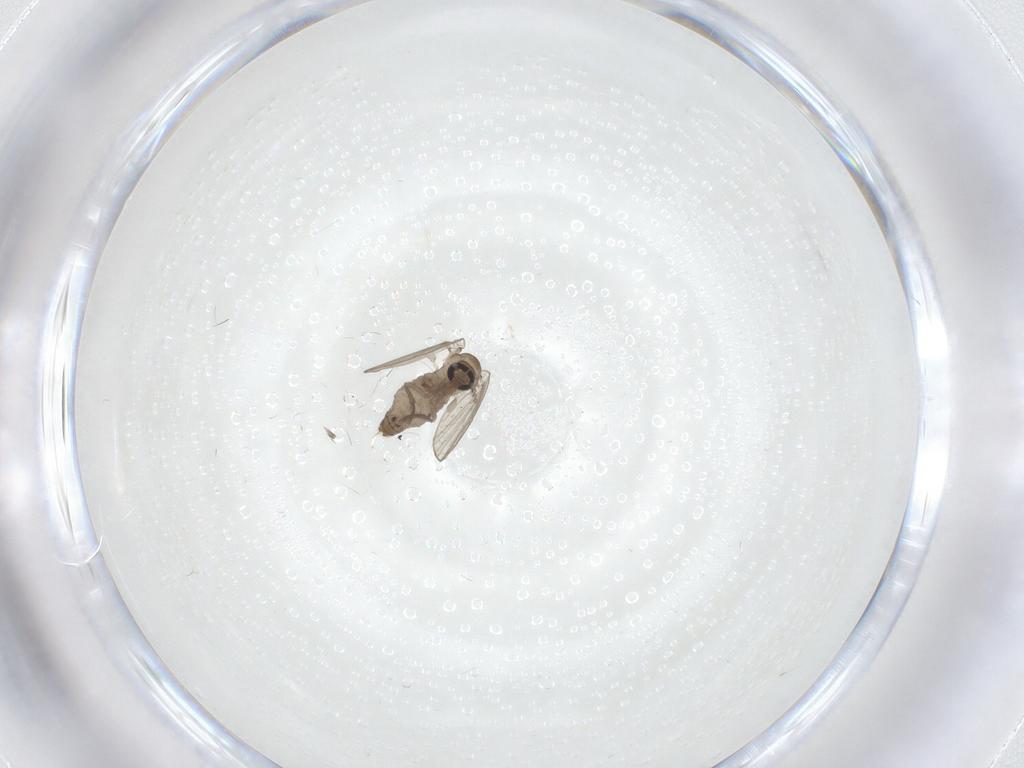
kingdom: Animalia
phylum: Arthropoda
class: Insecta
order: Diptera
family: Psychodidae
